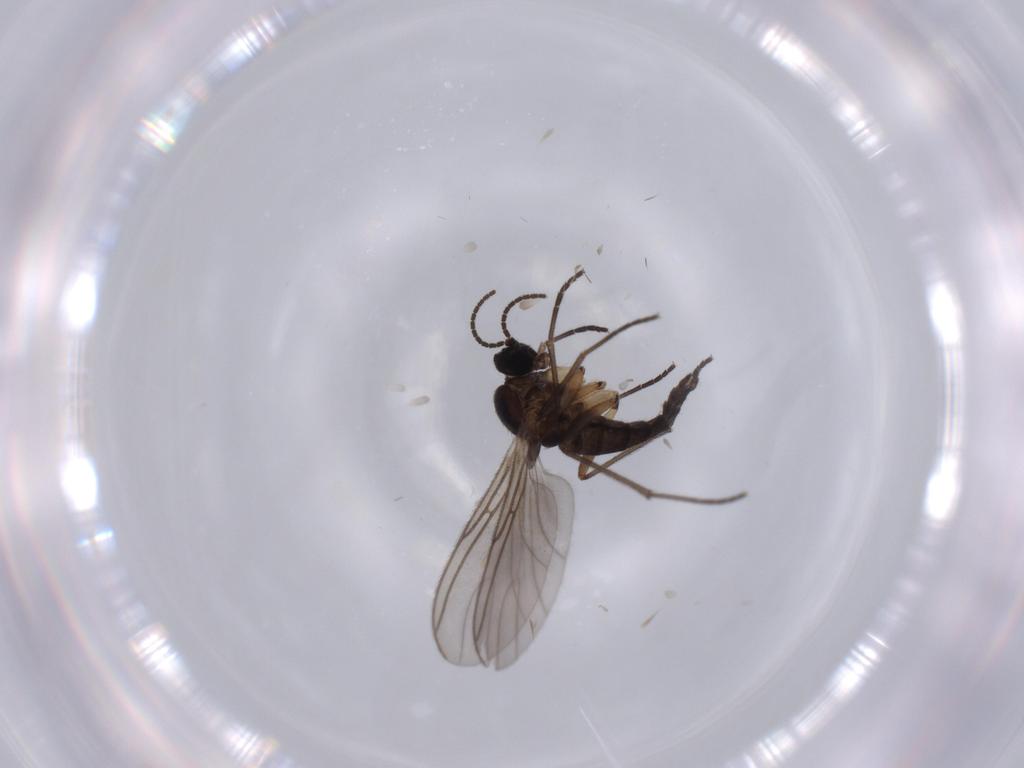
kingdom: Animalia
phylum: Arthropoda
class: Insecta
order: Diptera
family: Sciaridae
